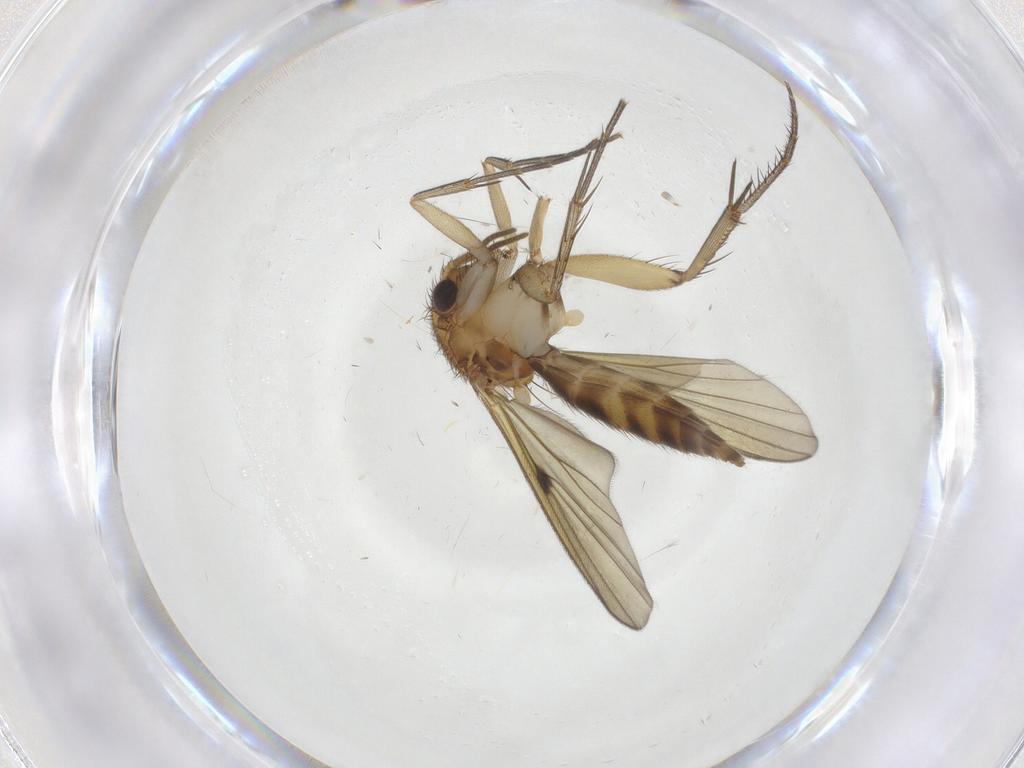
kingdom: Animalia
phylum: Arthropoda
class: Insecta
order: Diptera
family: Mycetophilidae
